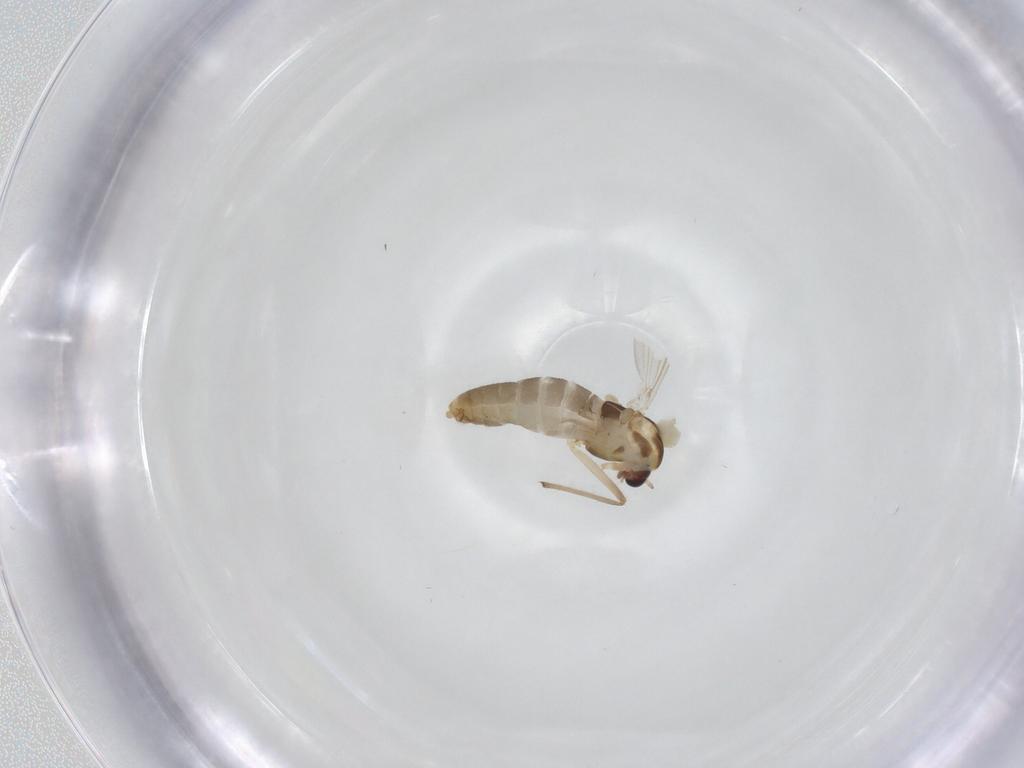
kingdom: Animalia
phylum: Arthropoda
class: Insecta
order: Diptera
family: Chironomidae
